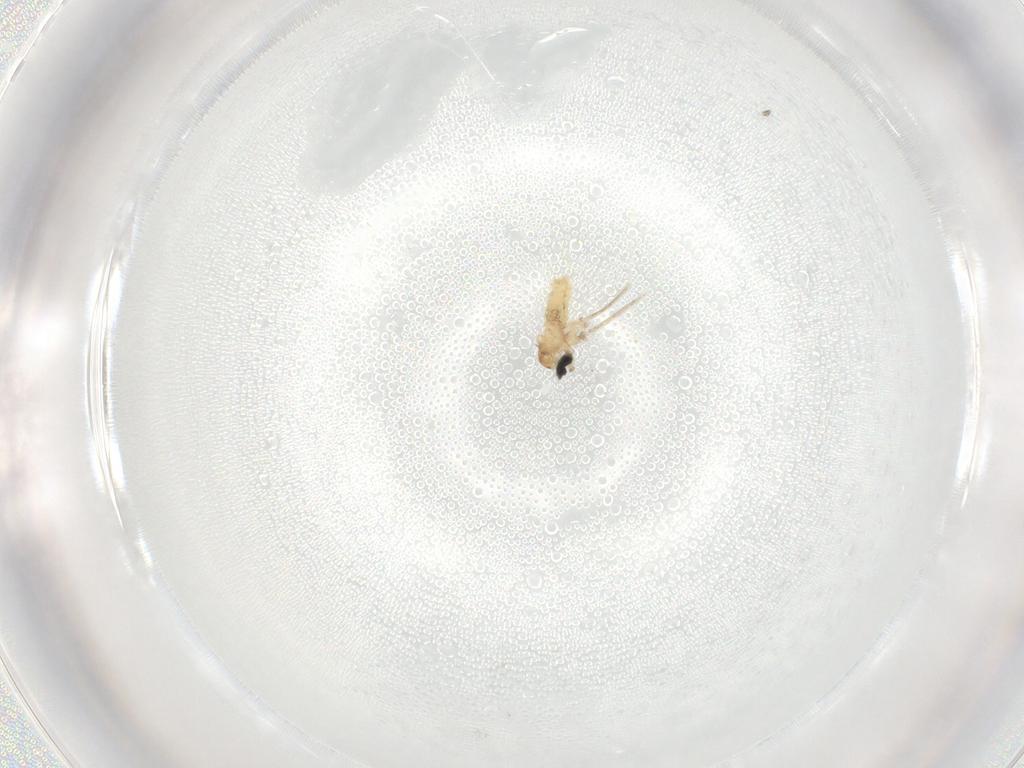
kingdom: Animalia
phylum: Arthropoda
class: Insecta
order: Diptera
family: Cecidomyiidae
